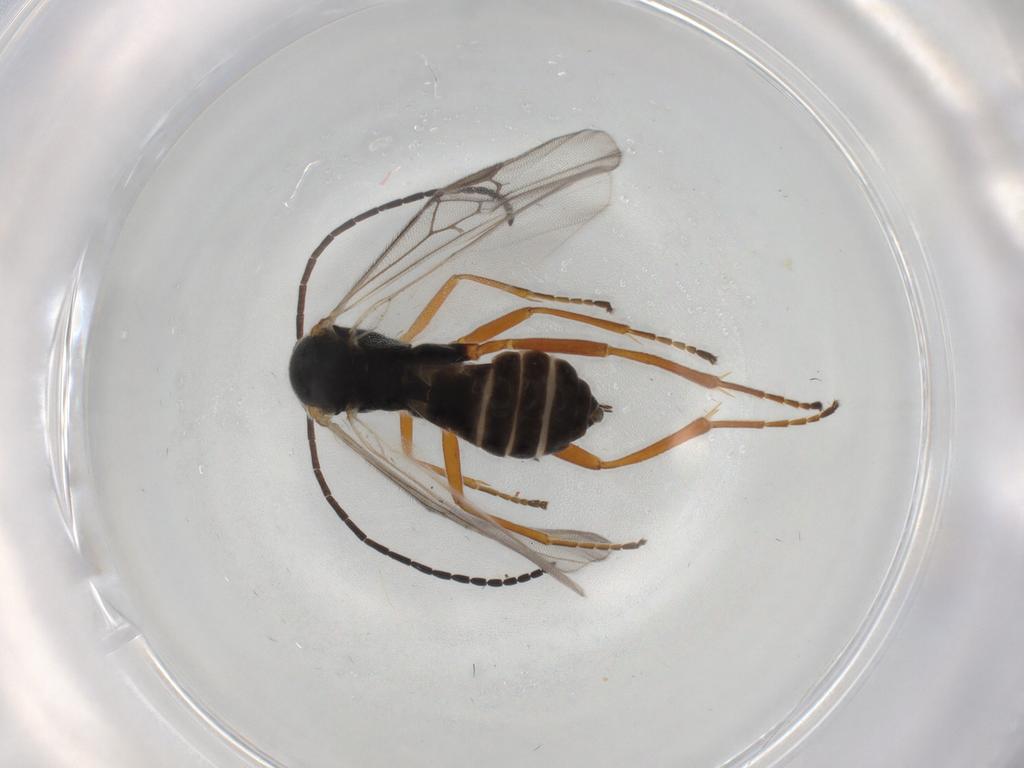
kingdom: Animalia
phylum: Arthropoda
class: Insecta
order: Hymenoptera
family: Braconidae
